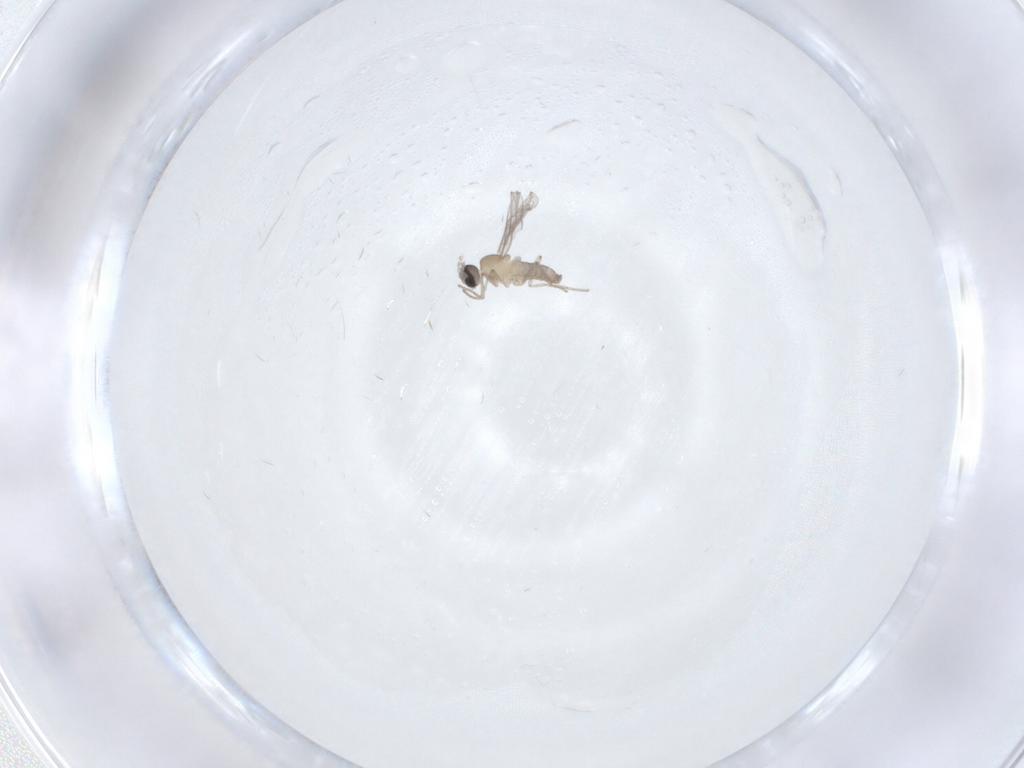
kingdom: Animalia
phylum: Arthropoda
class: Insecta
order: Diptera
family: Cecidomyiidae
